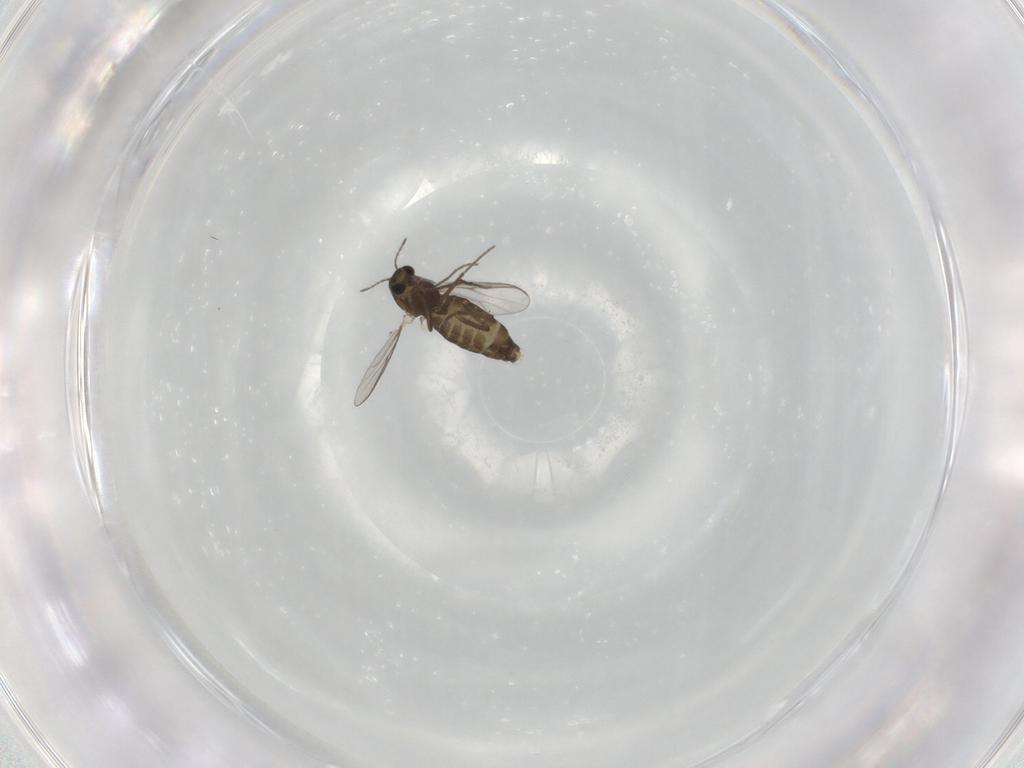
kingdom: Animalia
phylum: Arthropoda
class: Insecta
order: Diptera
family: Chironomidae
